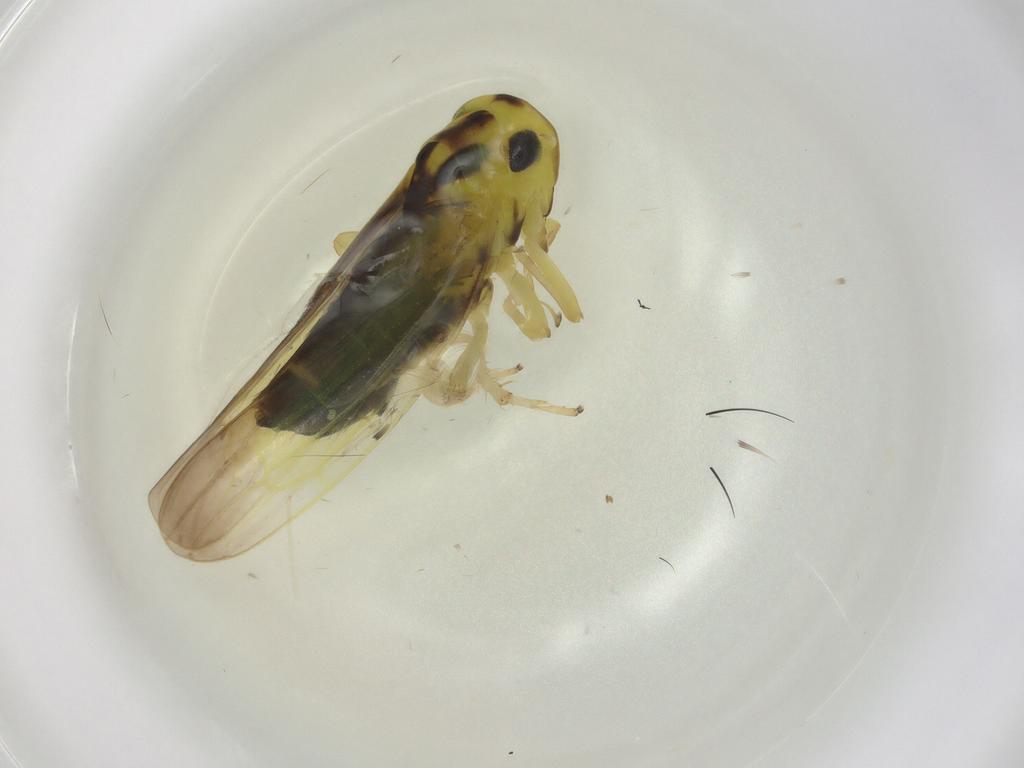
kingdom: Animalia
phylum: Arthropoda
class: Insecta
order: Hemiptera
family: Cicadellidae
